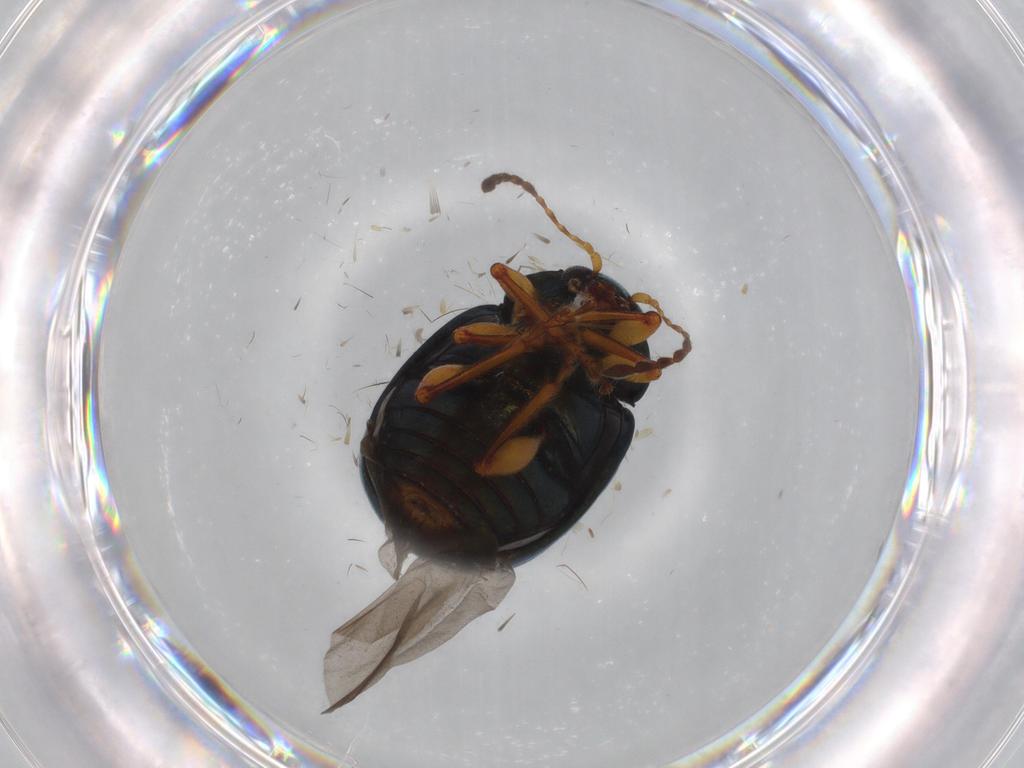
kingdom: Animalia
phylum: Arthropoda
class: Insecta
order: Coleoptera
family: Chrysomelidae
